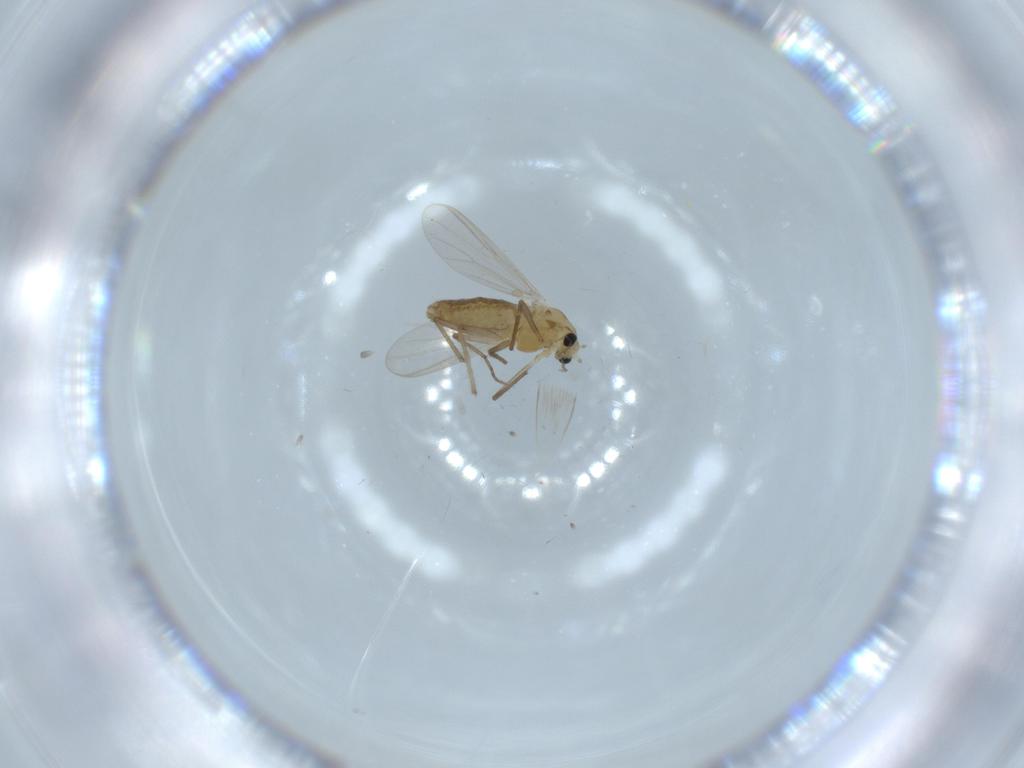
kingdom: Animalia
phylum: Arthropoda
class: Insecta
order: Diptera
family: Chironomidae
